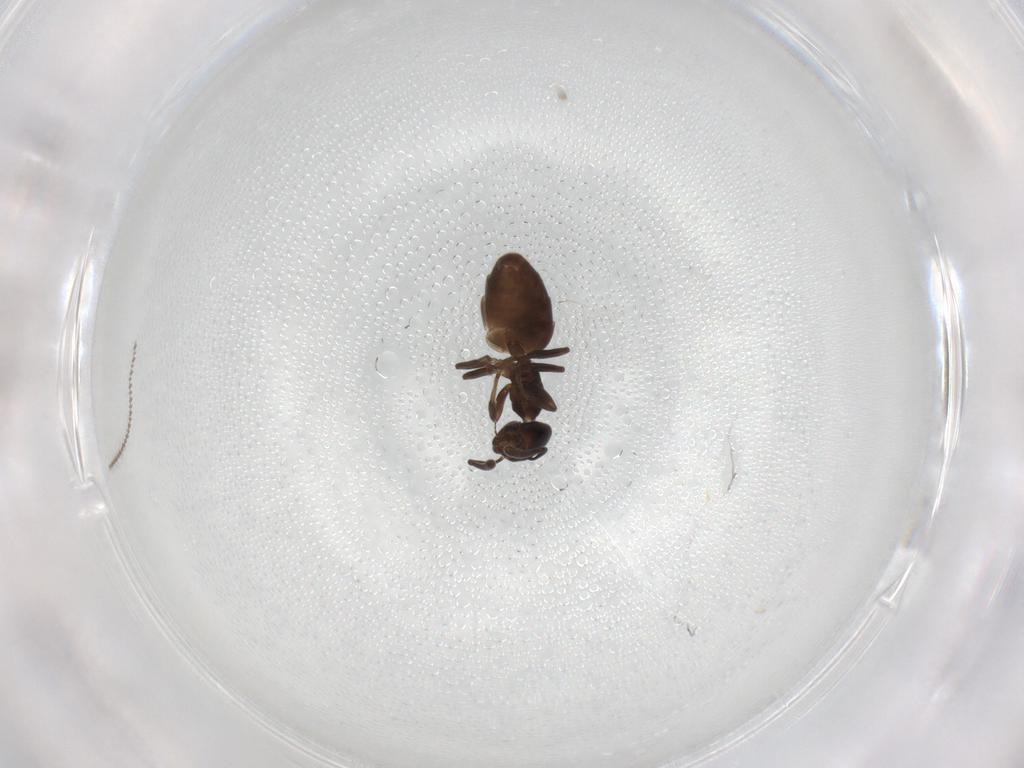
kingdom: Animalia
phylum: Arthropoda
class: Insecta
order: Hymenoptera
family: Formicidae
